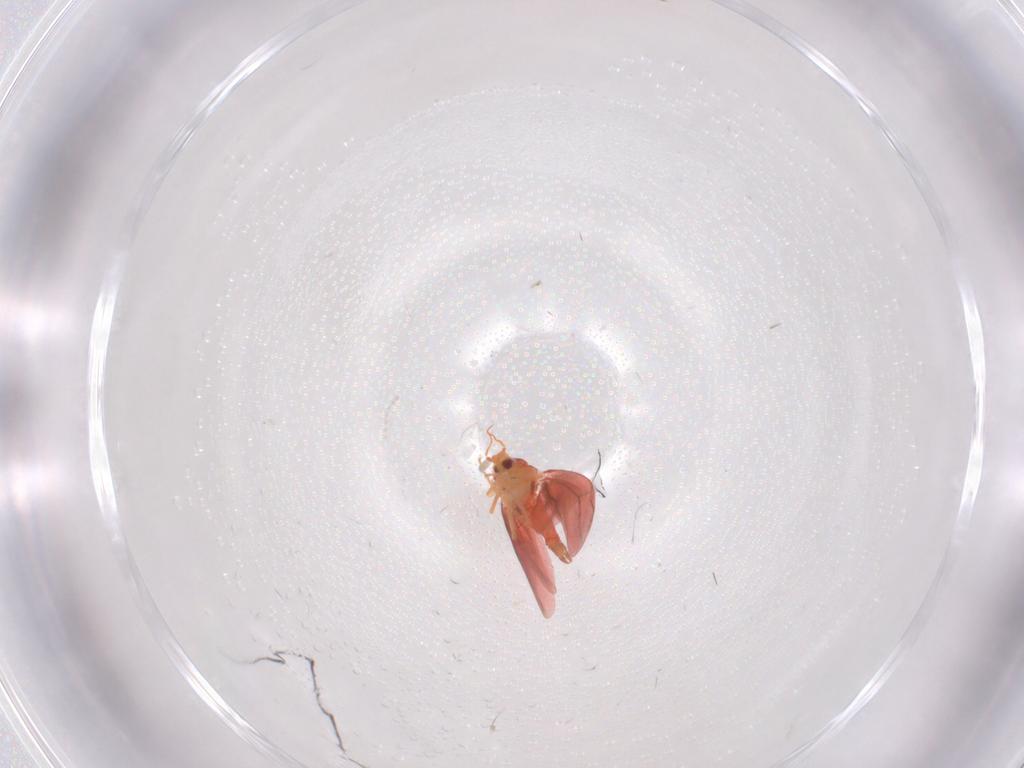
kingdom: Animalia
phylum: Arthropoda
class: Insecta
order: Hemiptera
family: Aleyrodidae
